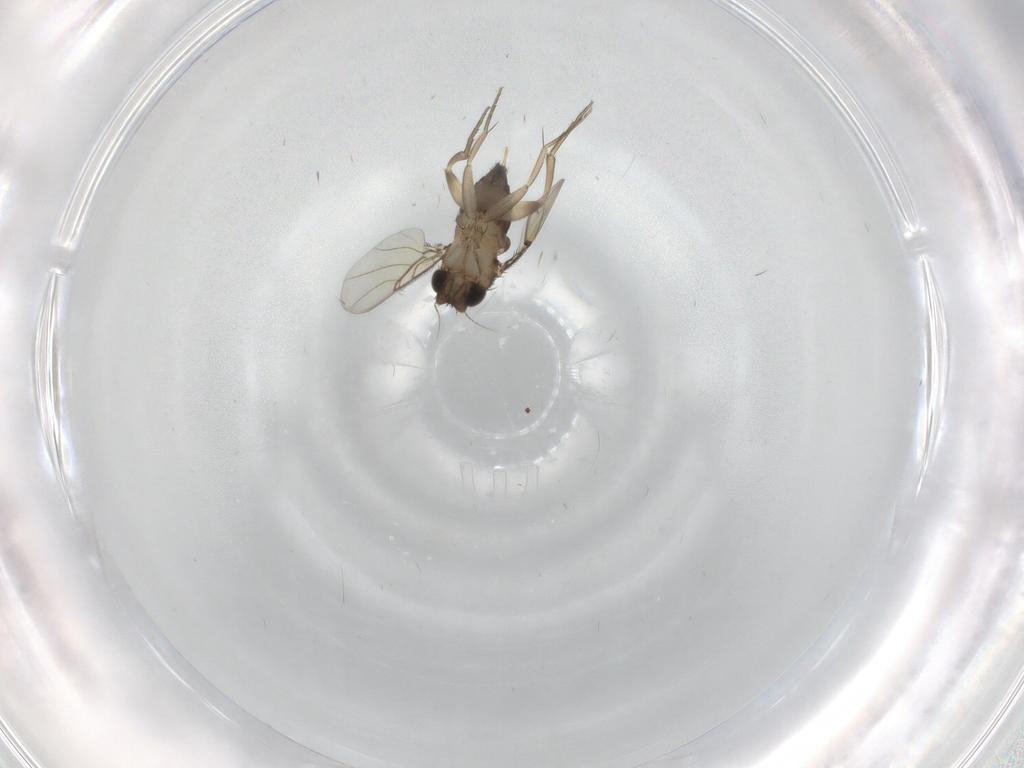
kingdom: Animalia
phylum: Arthropoda
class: Insecta
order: Diptera
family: Phoridae
